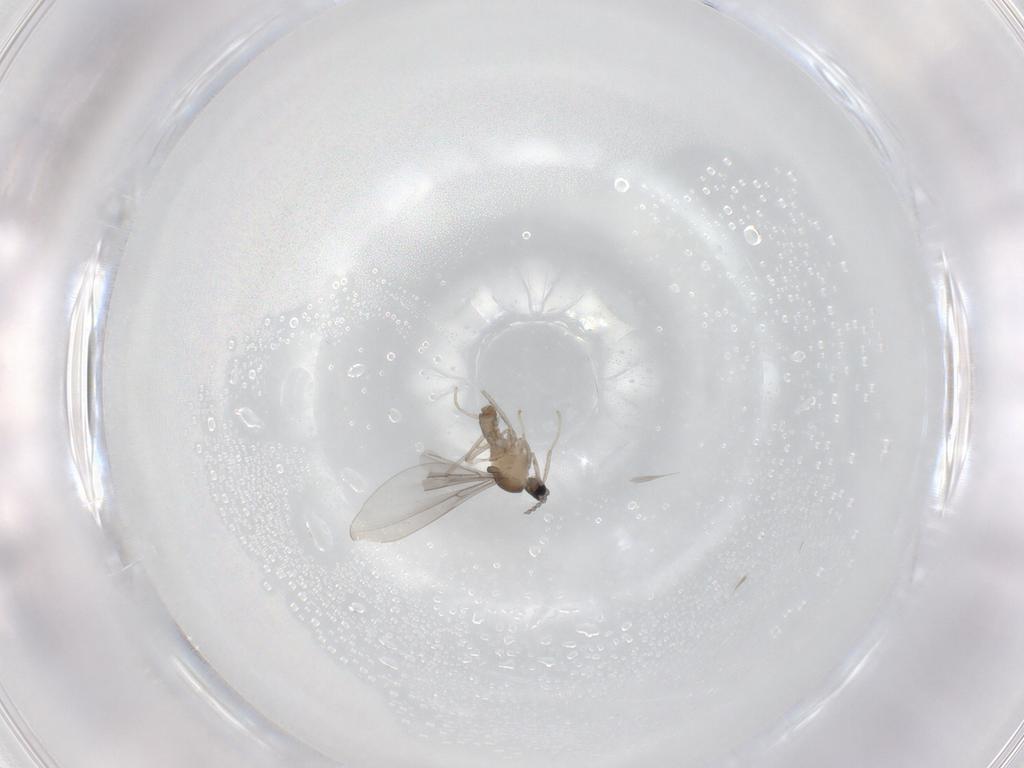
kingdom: Animalia
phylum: Arthropoda
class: Insecta
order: Diptera
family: Cecidomyiidae
